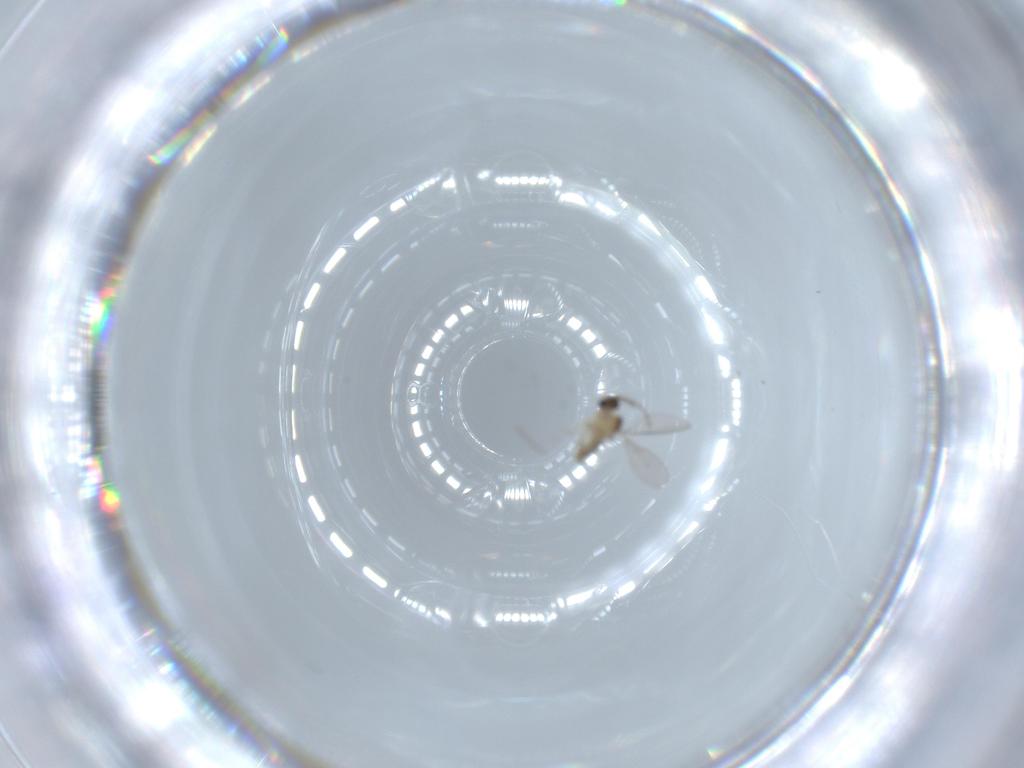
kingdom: Animalia
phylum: Arthropoda
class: Insecta
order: Diptera
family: Cecidomyiidae
